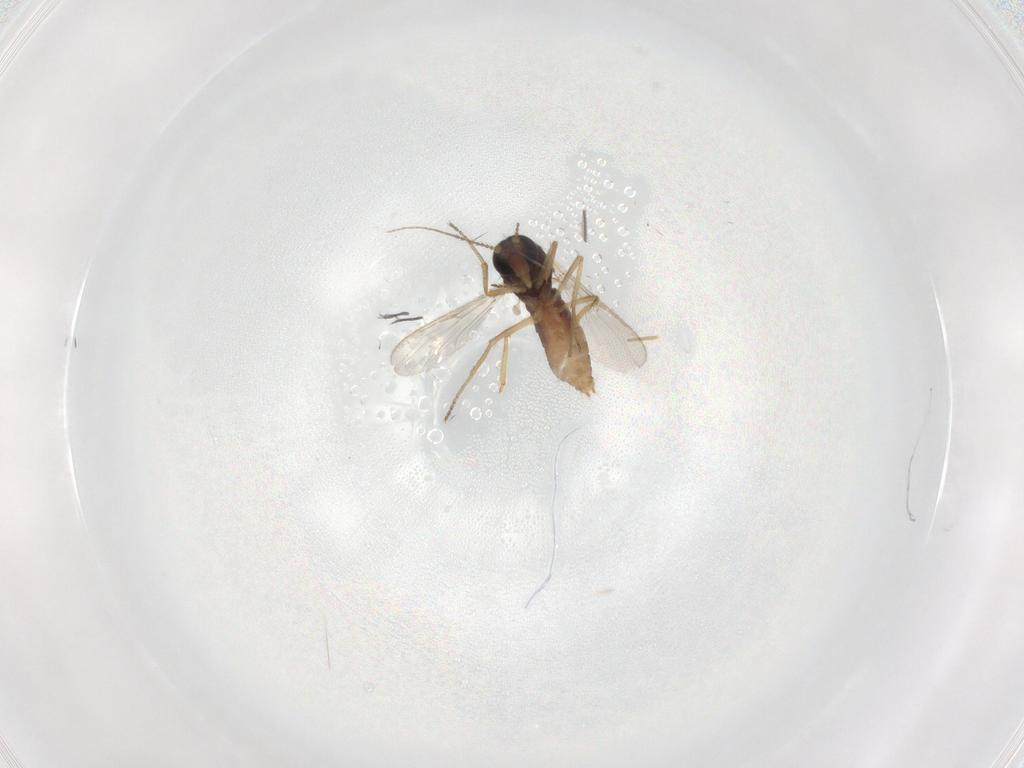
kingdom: Animalia
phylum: Arthropoda
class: Insecta
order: Diptera
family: Ceratopogonidae
